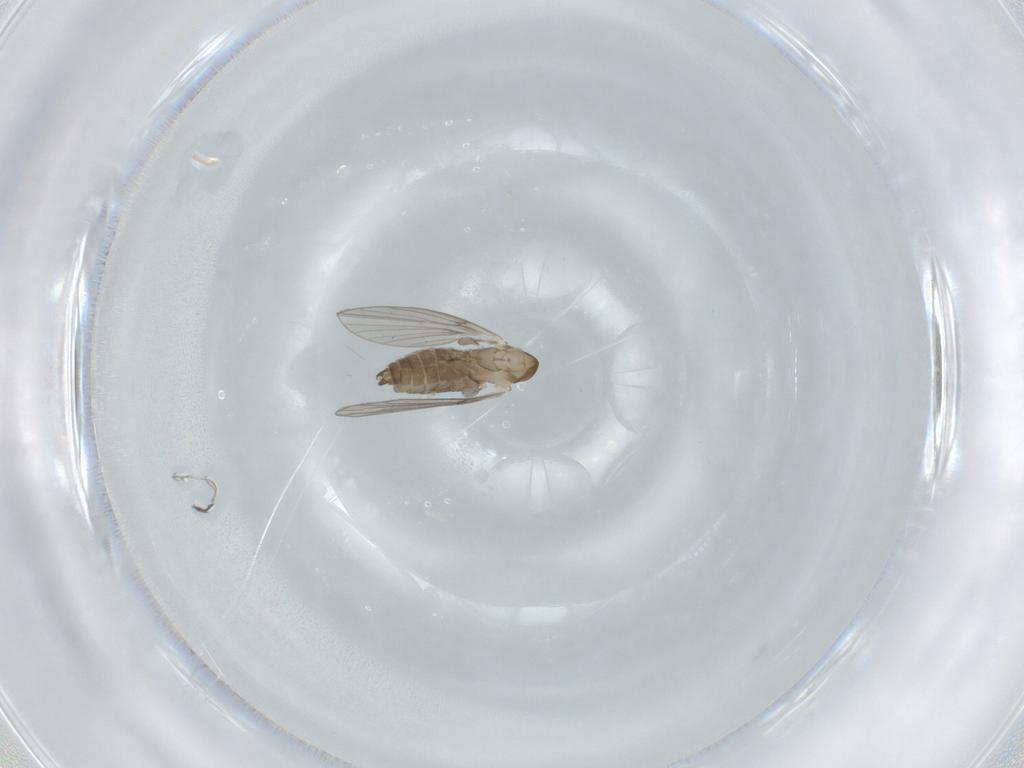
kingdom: Animalia
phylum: Arthropoda
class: Insecta
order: Diptera
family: Psychodidae
